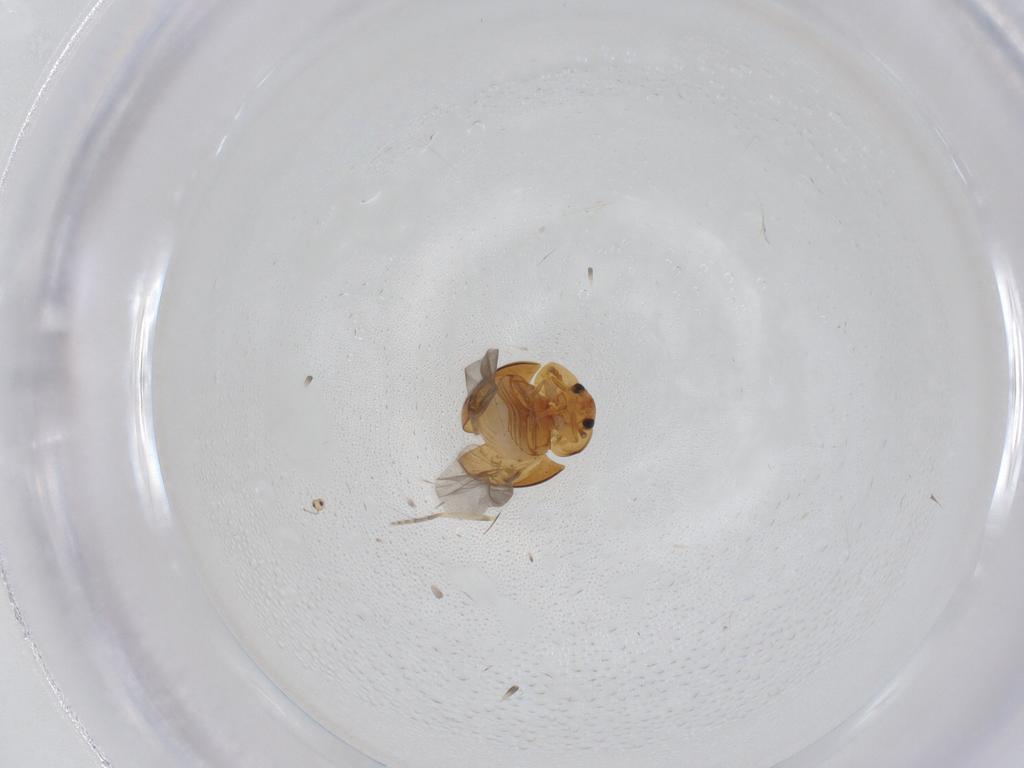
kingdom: Animalia
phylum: Arthropoda
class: Insecta
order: Coleoptera
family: Phalacridae
